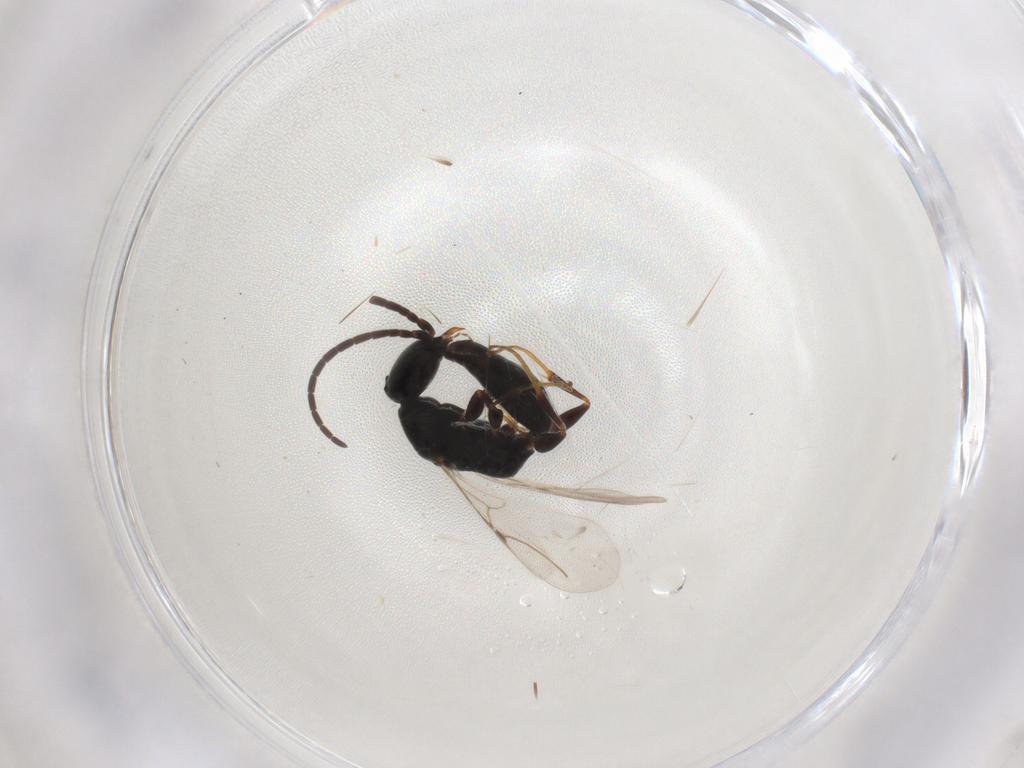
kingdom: Animalia
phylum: Arthropoda
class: Insecta
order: Hymenoptera
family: Bethylidae
